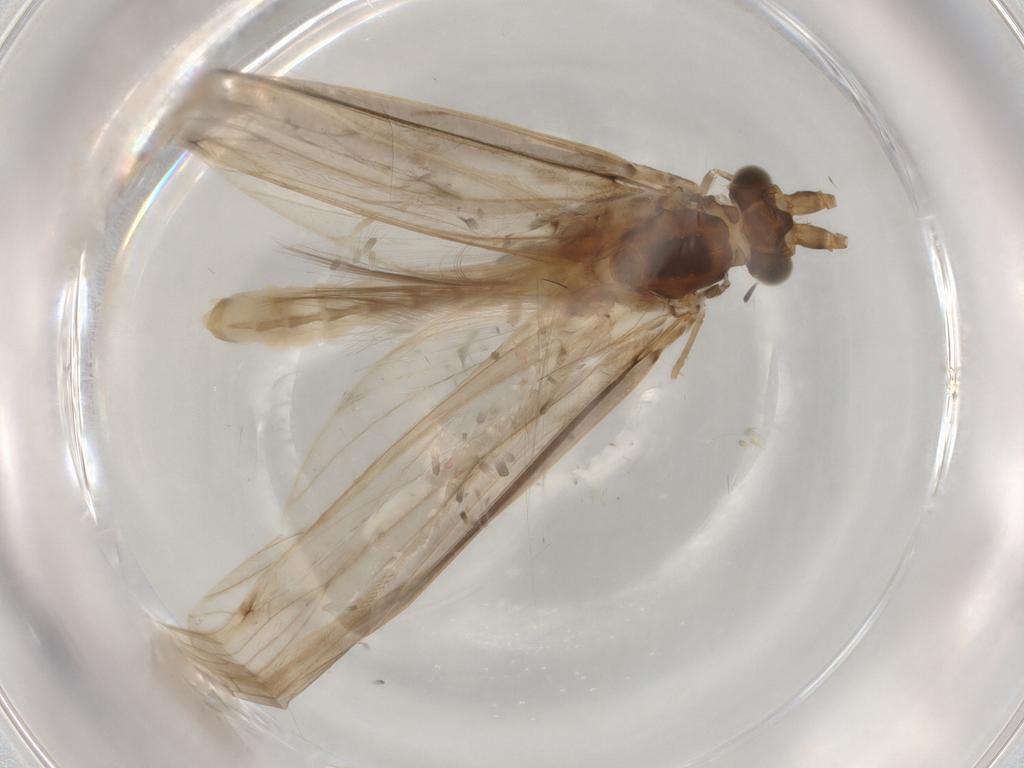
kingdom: Animalia
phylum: Arthropoda
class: Insecta
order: Trichoptera
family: Leptoceridae
